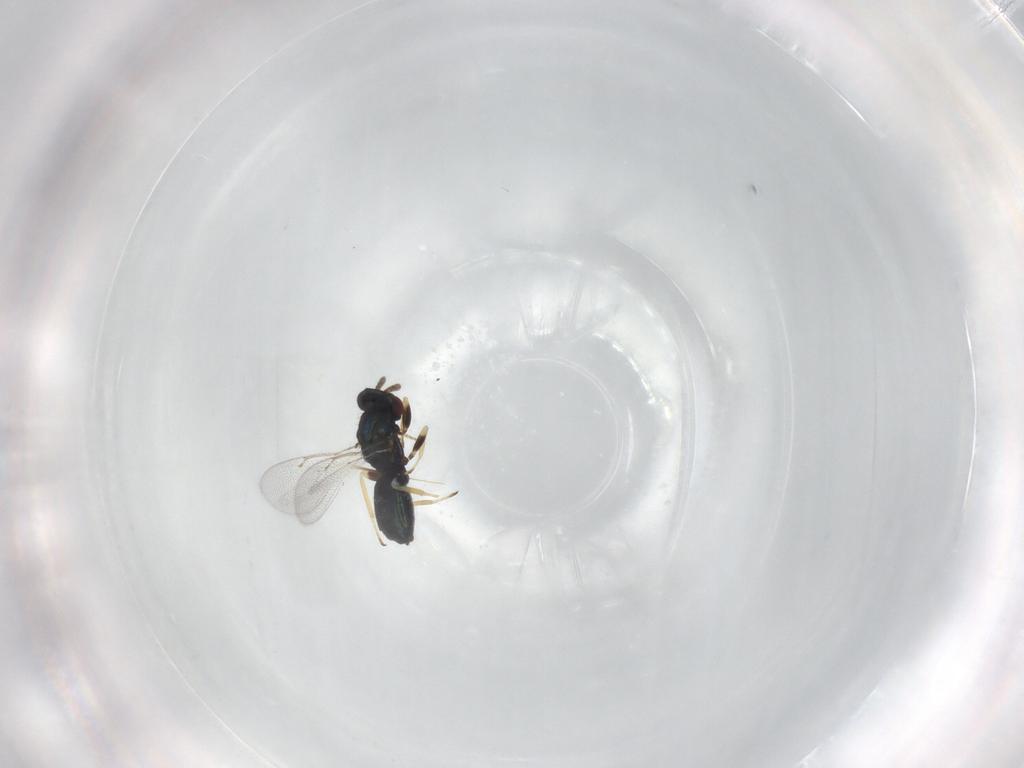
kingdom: Animalia
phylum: Arthropoda
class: Insecta
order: Hymenoptera
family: Eulophidae
